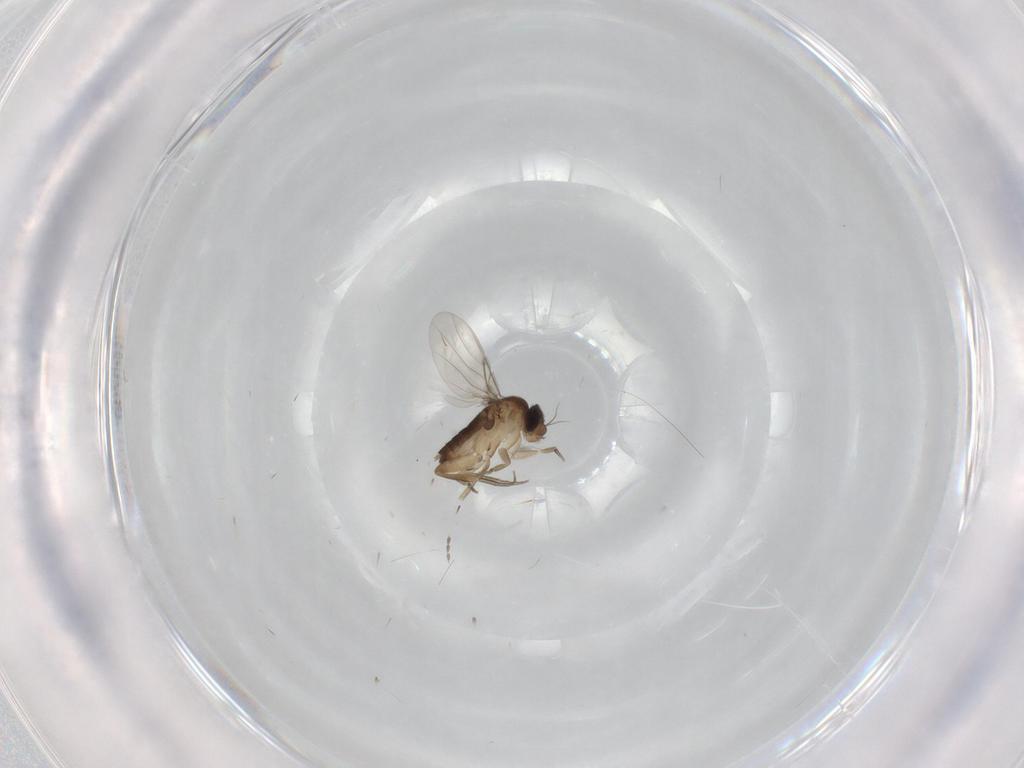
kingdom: Animalia
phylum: Arthropoda
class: Insecta
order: Diptera
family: Phoridae
